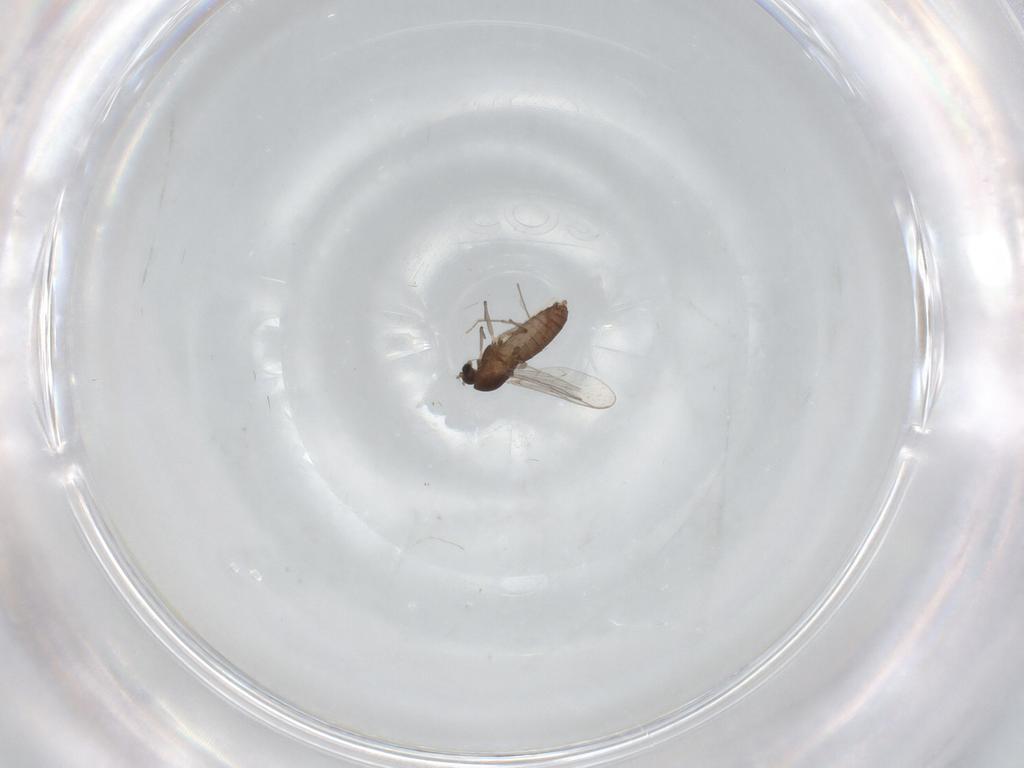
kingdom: Animalia
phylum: Arthropoda
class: Insecta
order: Diptera
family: Chironomidae
